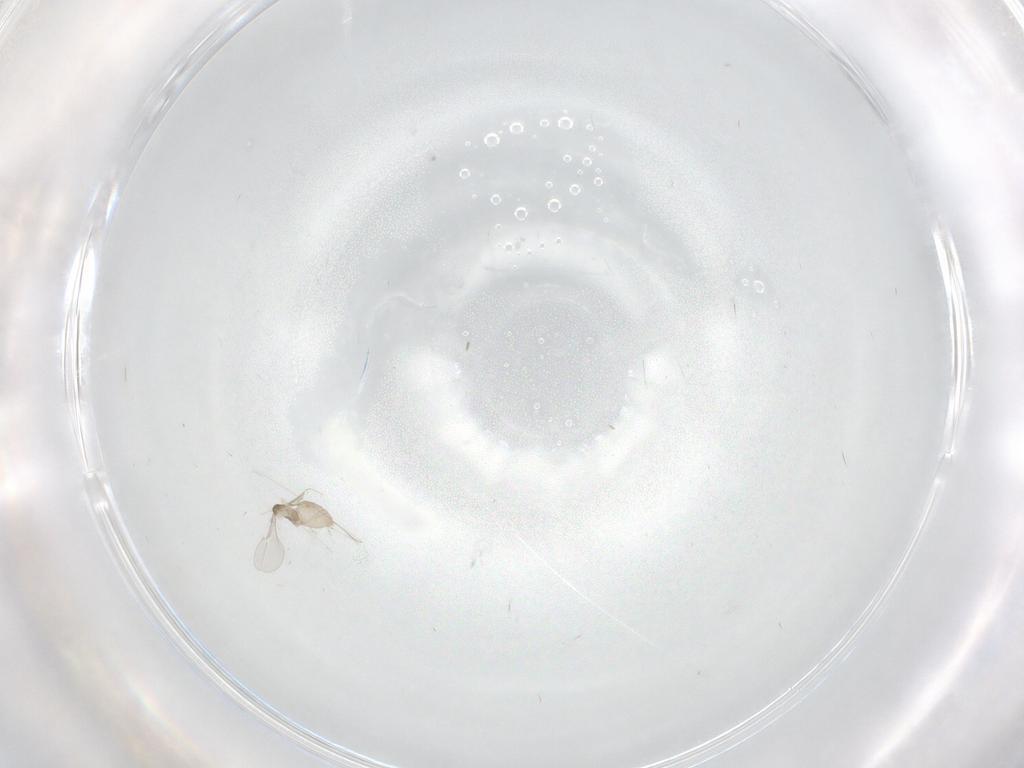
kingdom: Animalia
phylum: Arthropoda
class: Insecta
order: Diptera
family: Cecidomyiidae
